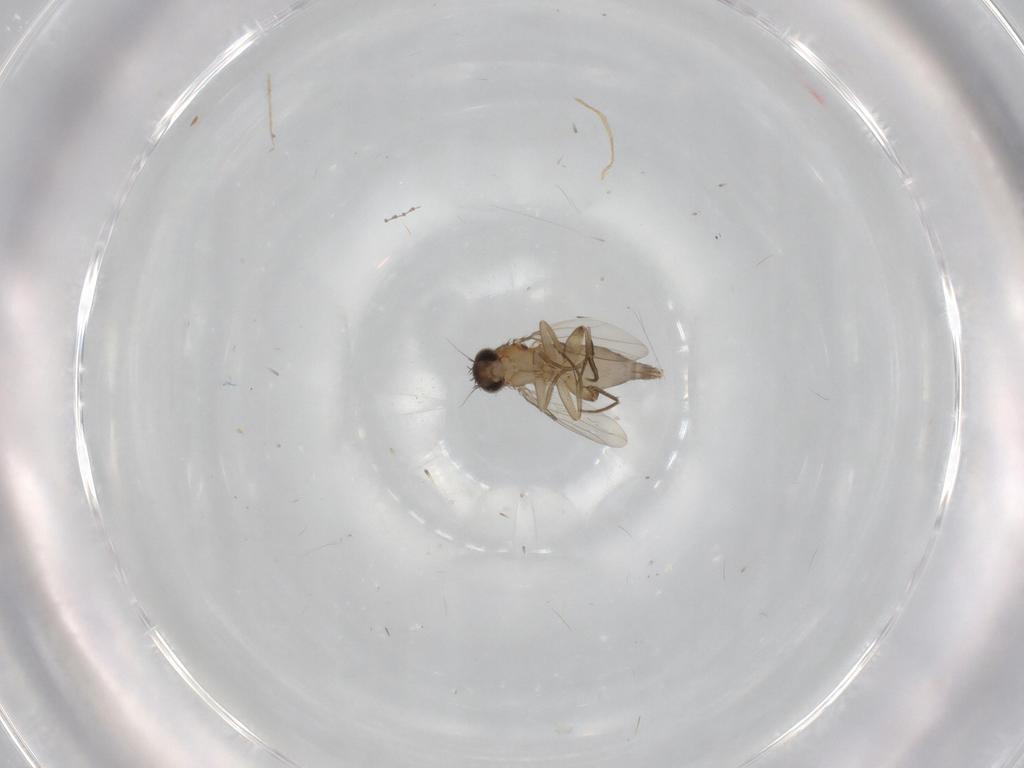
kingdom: Animalia
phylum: Arthropoda
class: Insecta
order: Diptera
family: Phoridae
